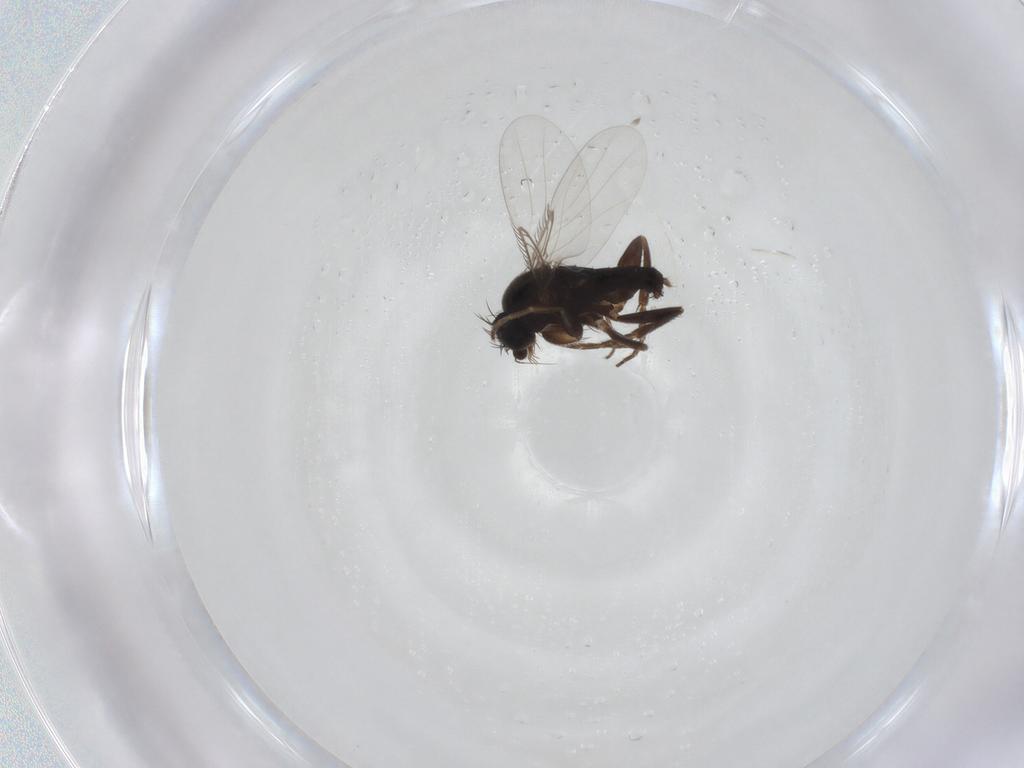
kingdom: Animalia
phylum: Arthropoda
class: Insecta
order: Diptera
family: Phoridae
